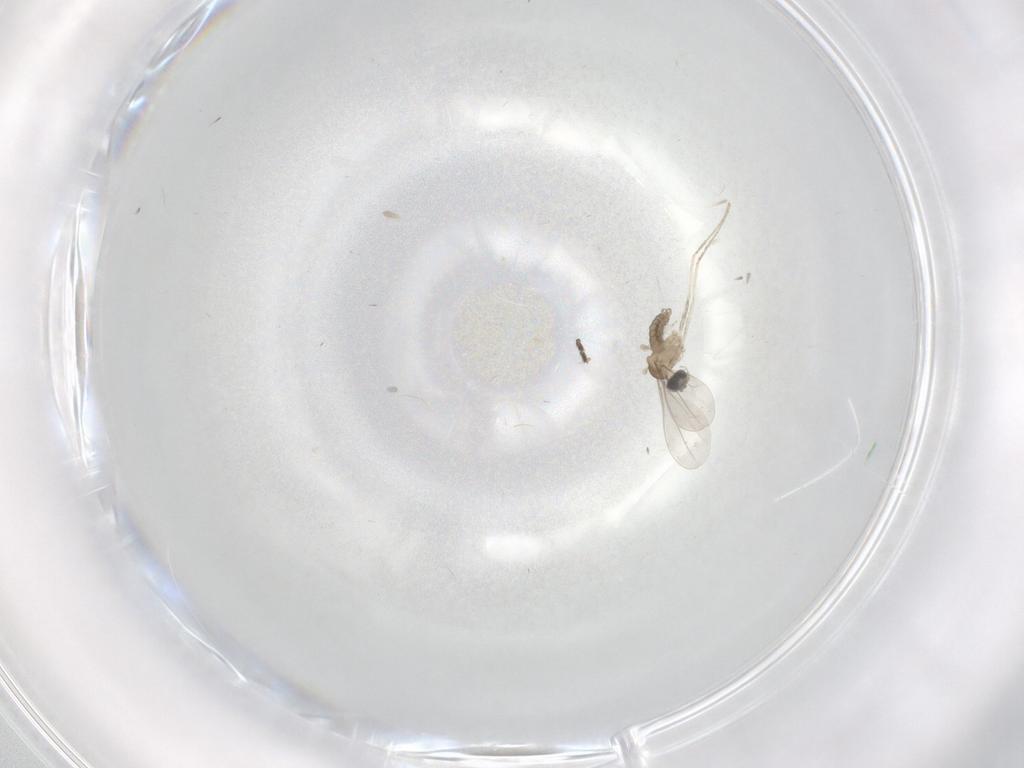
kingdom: Animalia
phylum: Arthropoda
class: Insecta
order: Diptera
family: Cecidomyiidae
